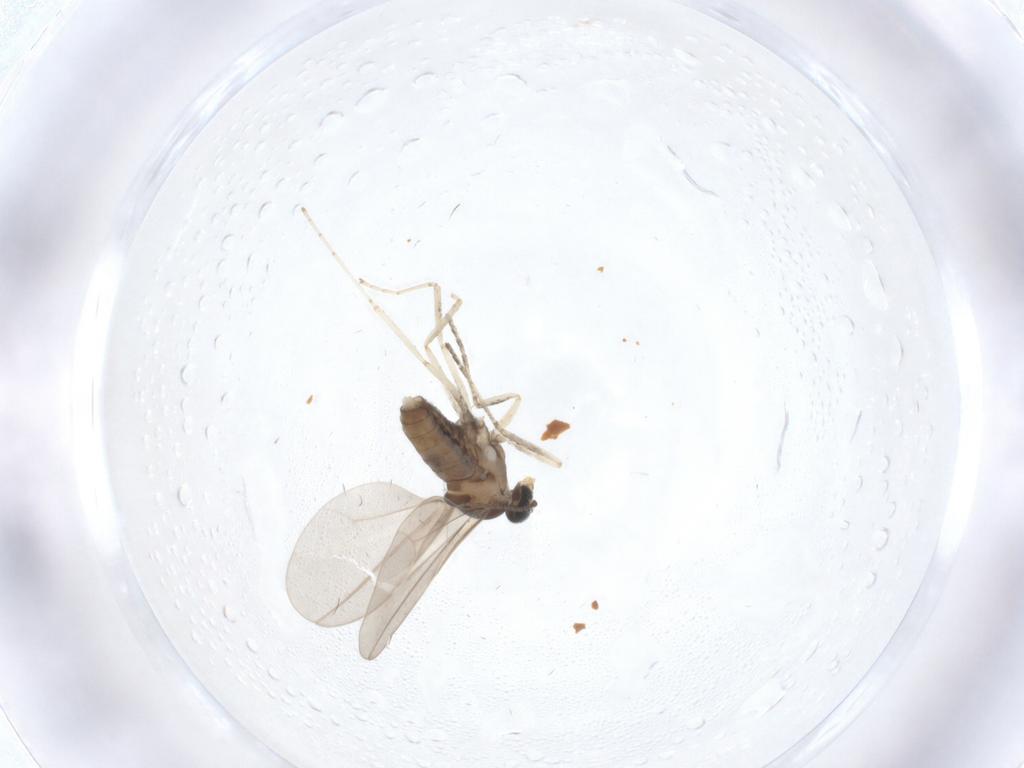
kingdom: Animalia
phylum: Arthropoda
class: Insecta
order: Diptera
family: Cecidomyiidae
